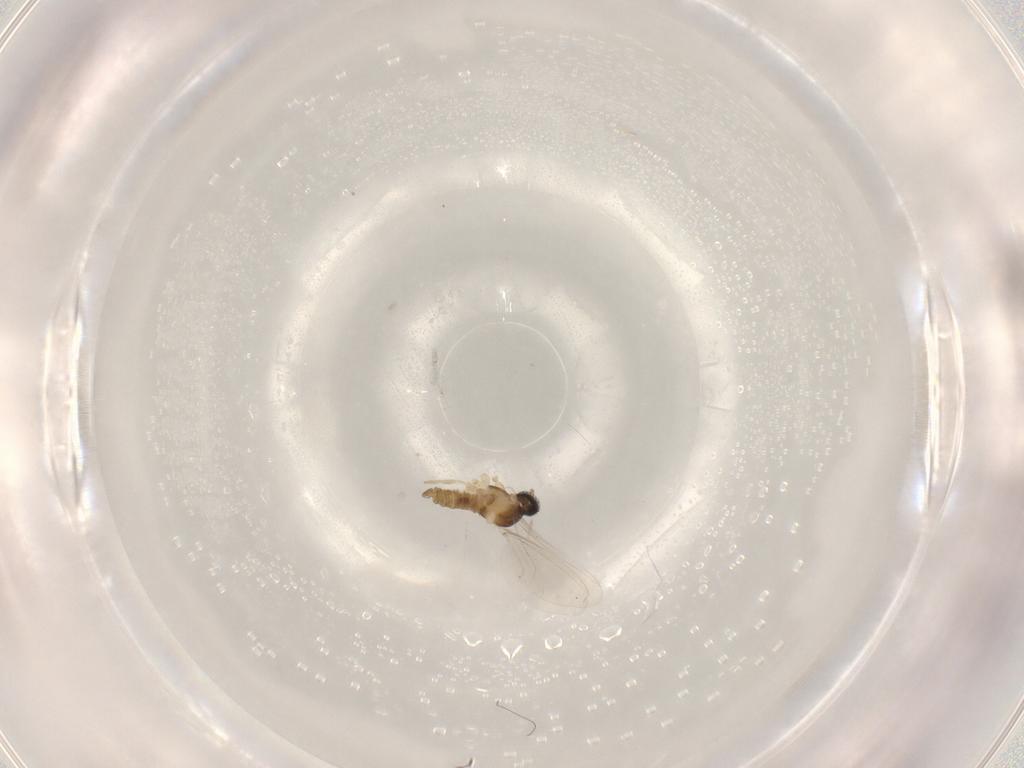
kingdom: Animalia
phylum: Arthropoda
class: Insecta
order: Diptera
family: Cecidomyiidae
